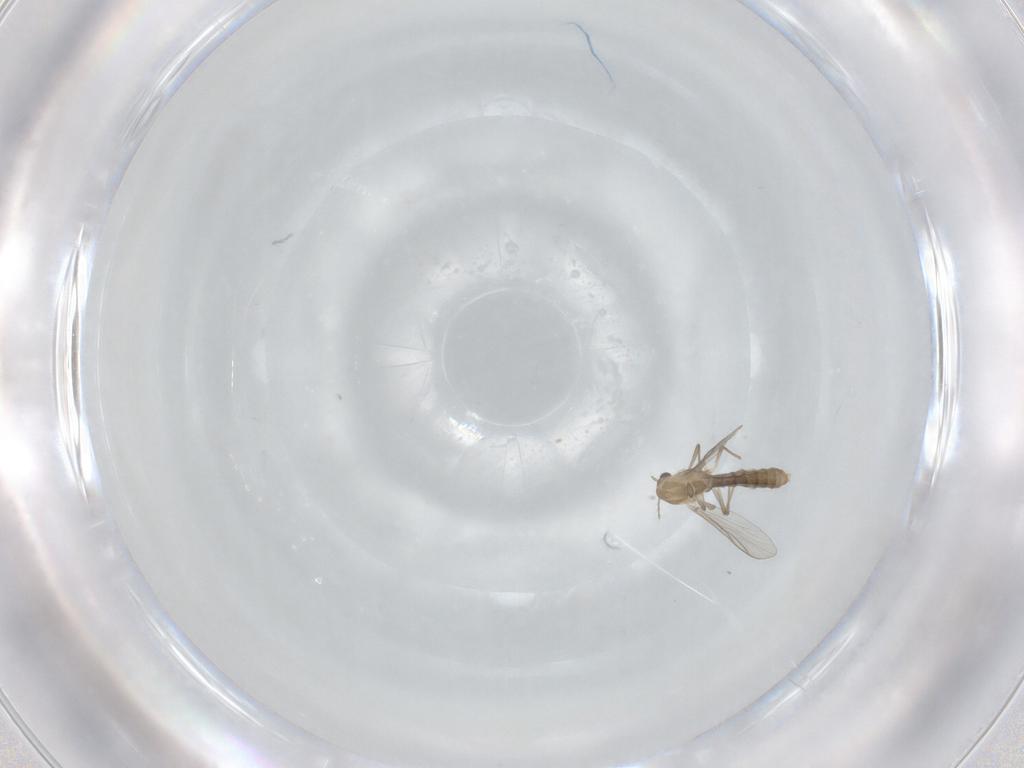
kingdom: Animalia
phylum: Arthropoda
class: Insecta
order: Diptera
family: Chironomidae
